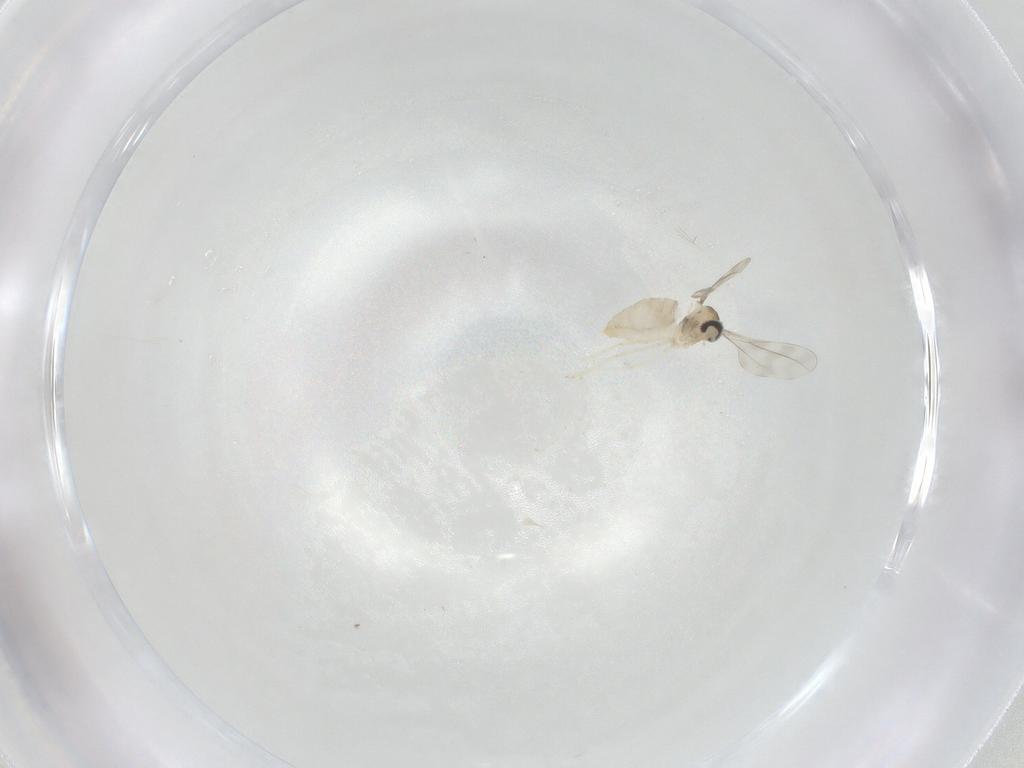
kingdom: Animalia
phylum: Arthropoda
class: Insecta
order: Diptera
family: Cecidomyiidae
